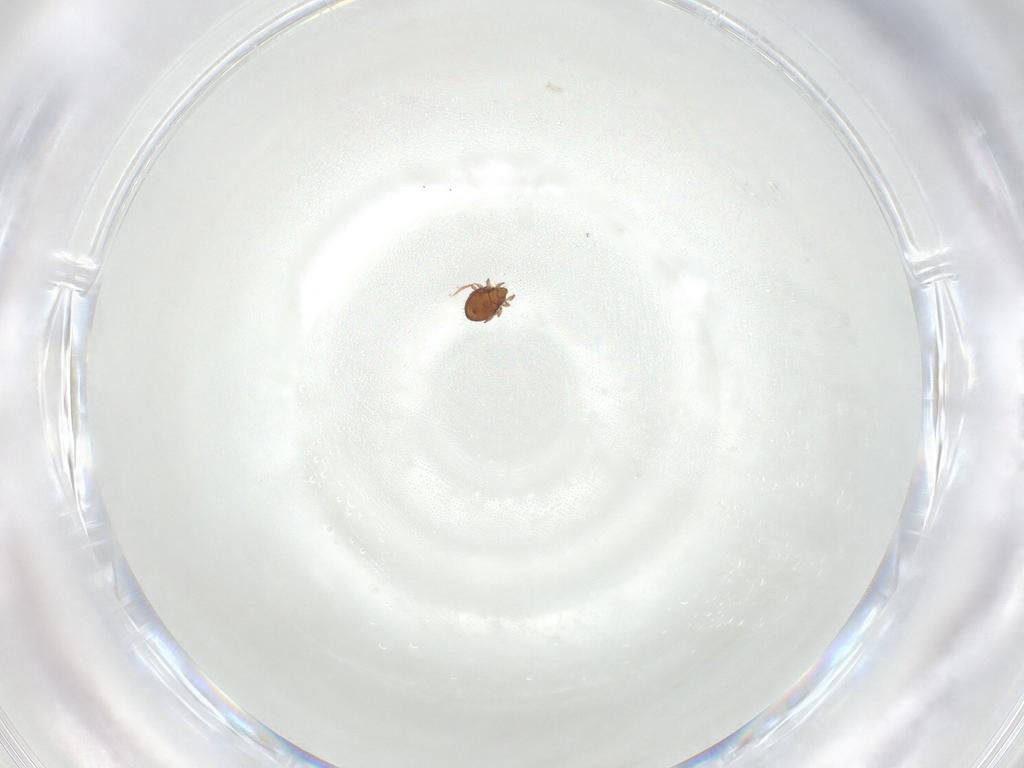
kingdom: Animalia
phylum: Arthropoda
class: Arachnida
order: Sarcoptiformes
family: Oribatulidae
